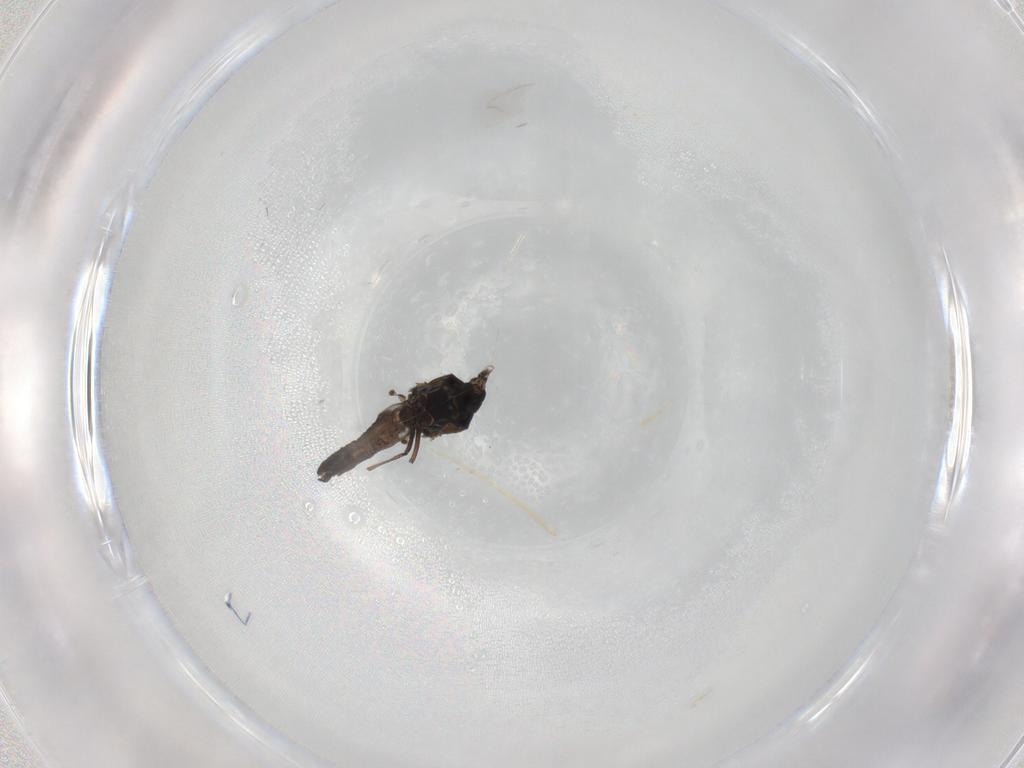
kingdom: Animalia
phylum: Arthropoda
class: Insecta
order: Diptera
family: Ceratopogonidae
